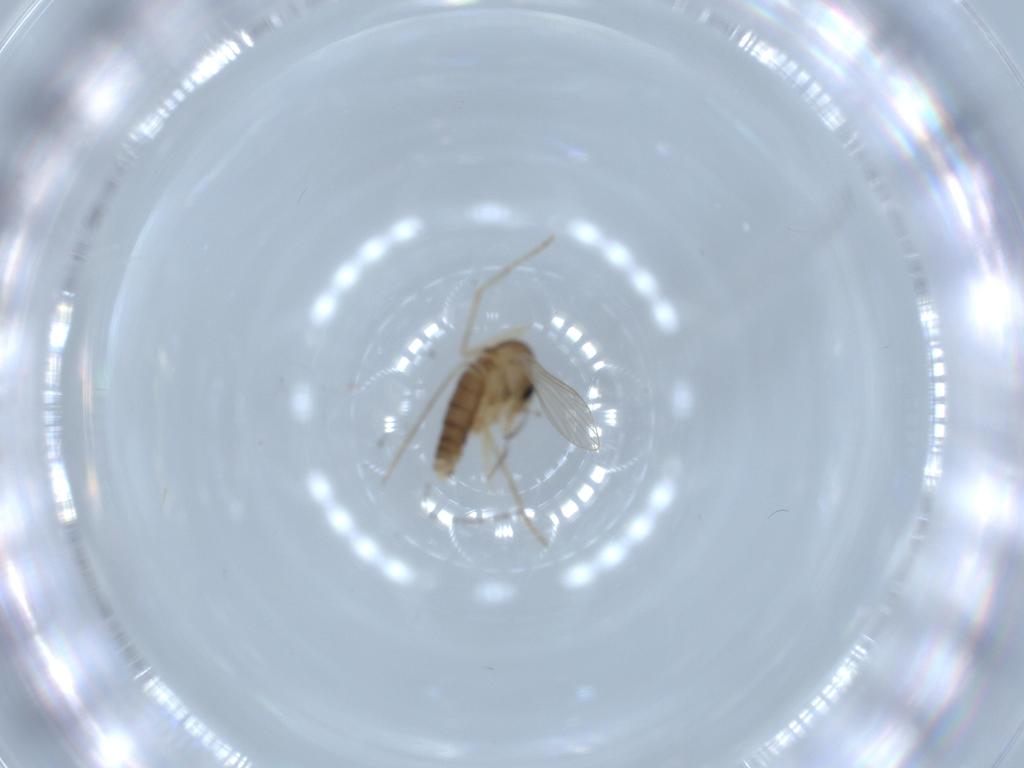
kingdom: Animalia
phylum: Arthropoda
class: Insecta
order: Diptera
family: Psychodidae
